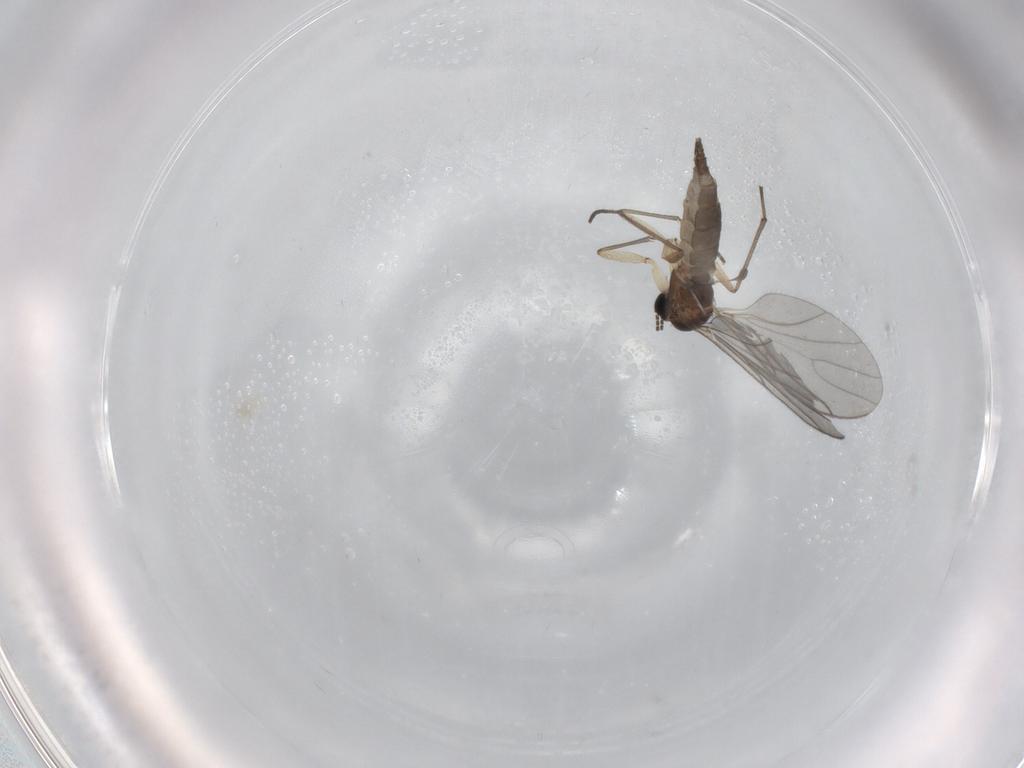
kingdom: Animalia
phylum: Arthropoda
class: Insecta
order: Diptera
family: Sciaridae
